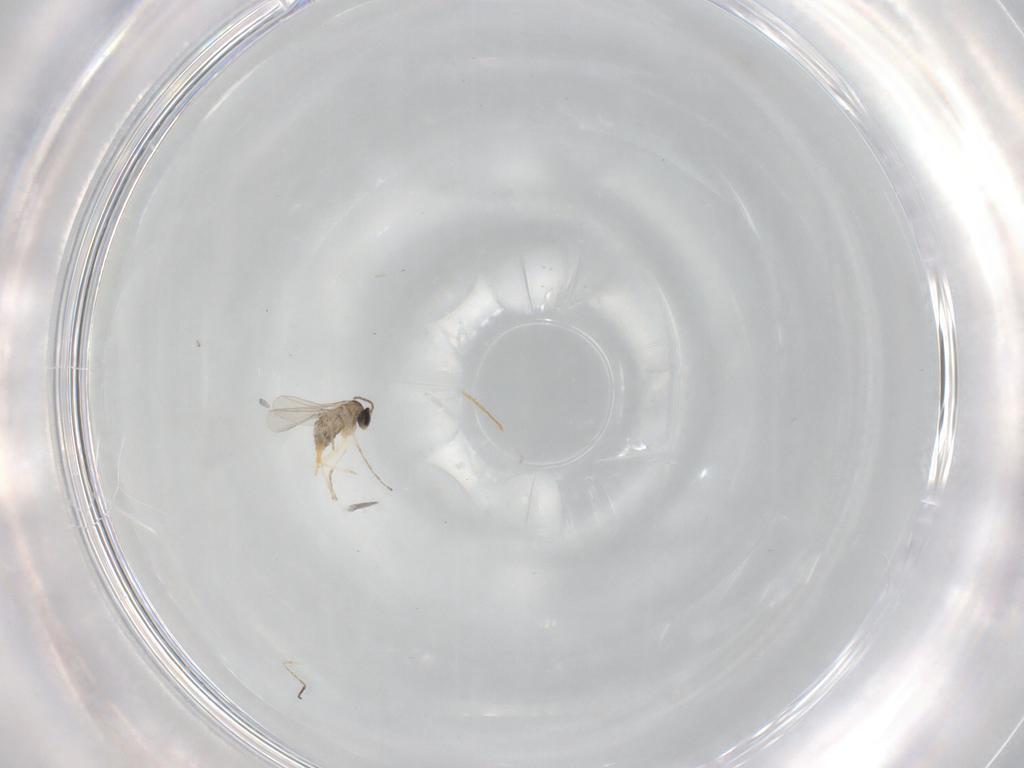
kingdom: Animalia
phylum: Arthropoda
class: Insecta
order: Diptera
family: Cecidomyiidae
